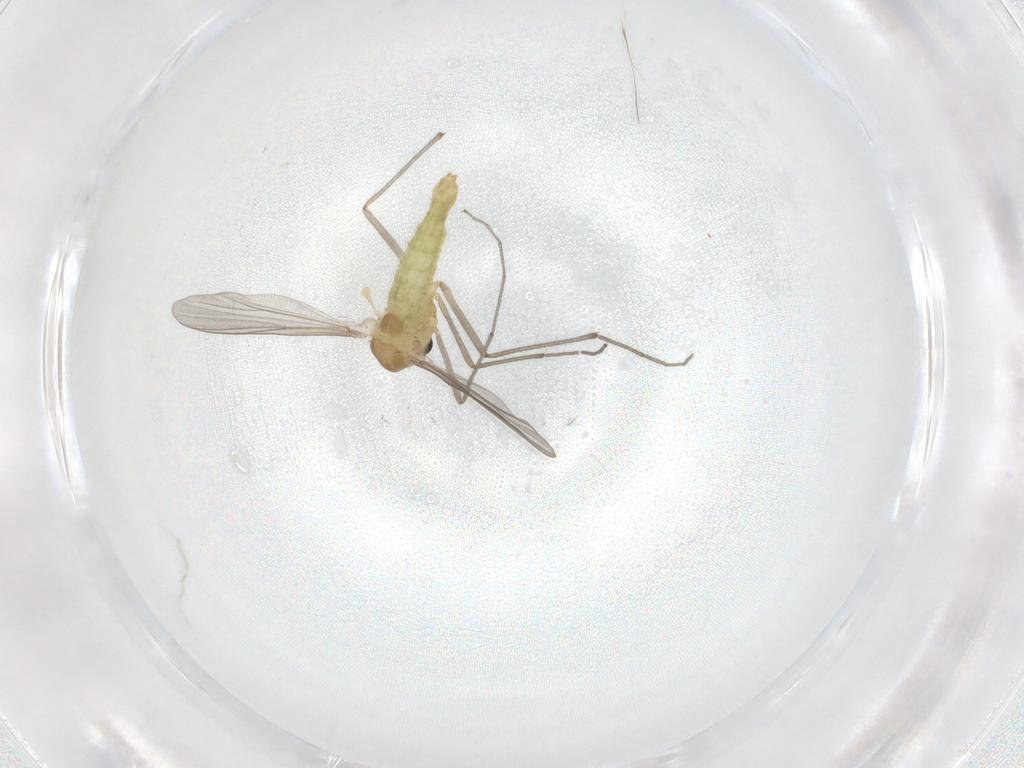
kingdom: Animalia
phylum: Arthropoda
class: Insecta
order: Diptera
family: Chironomidae
